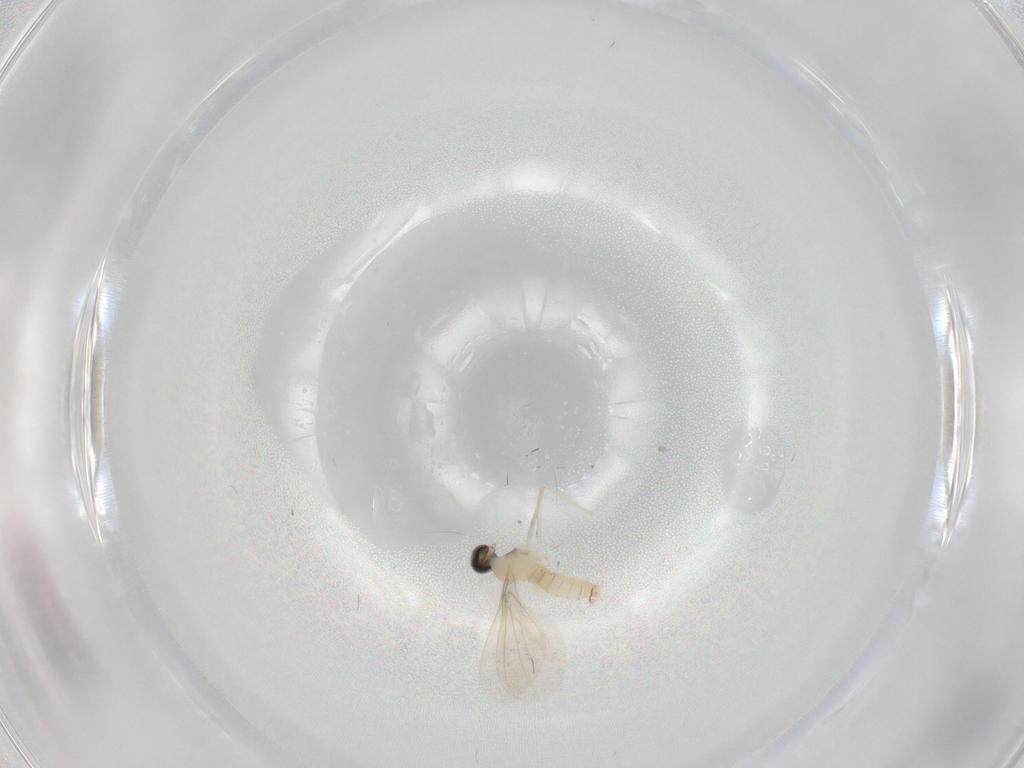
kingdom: Animalia
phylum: Arthropoda
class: Insecta
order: Diptera
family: Cecidomyiidae
